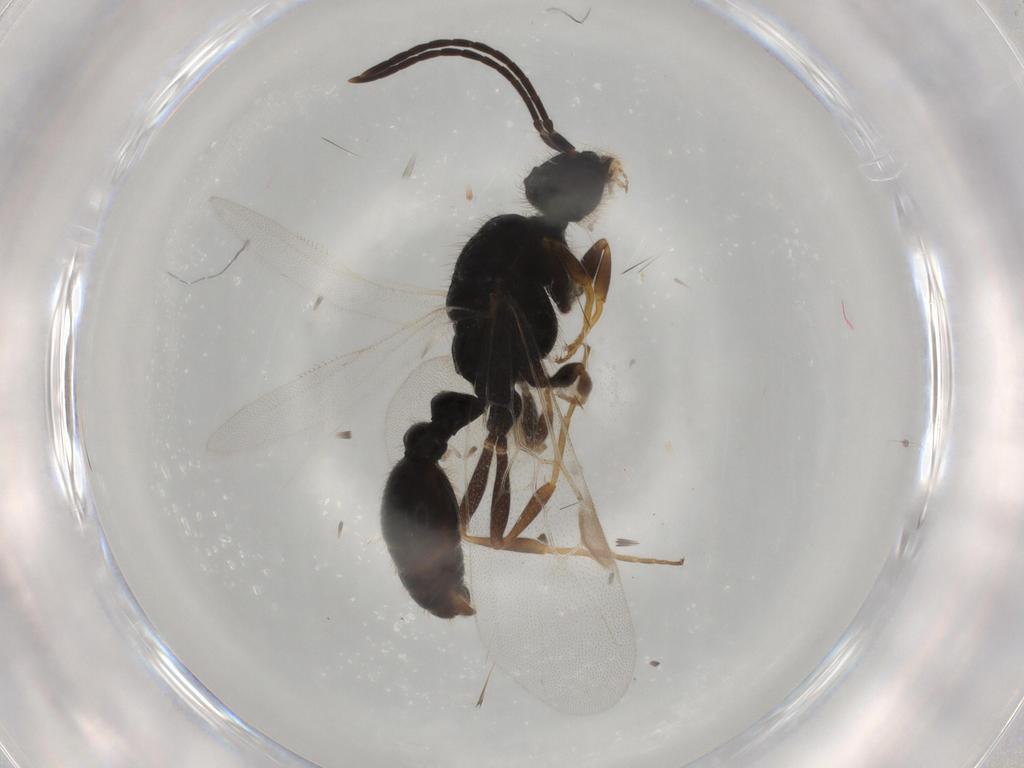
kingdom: Animalia
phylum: Arthropoda
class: Insecta
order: Hymenoptera
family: Formicidae
